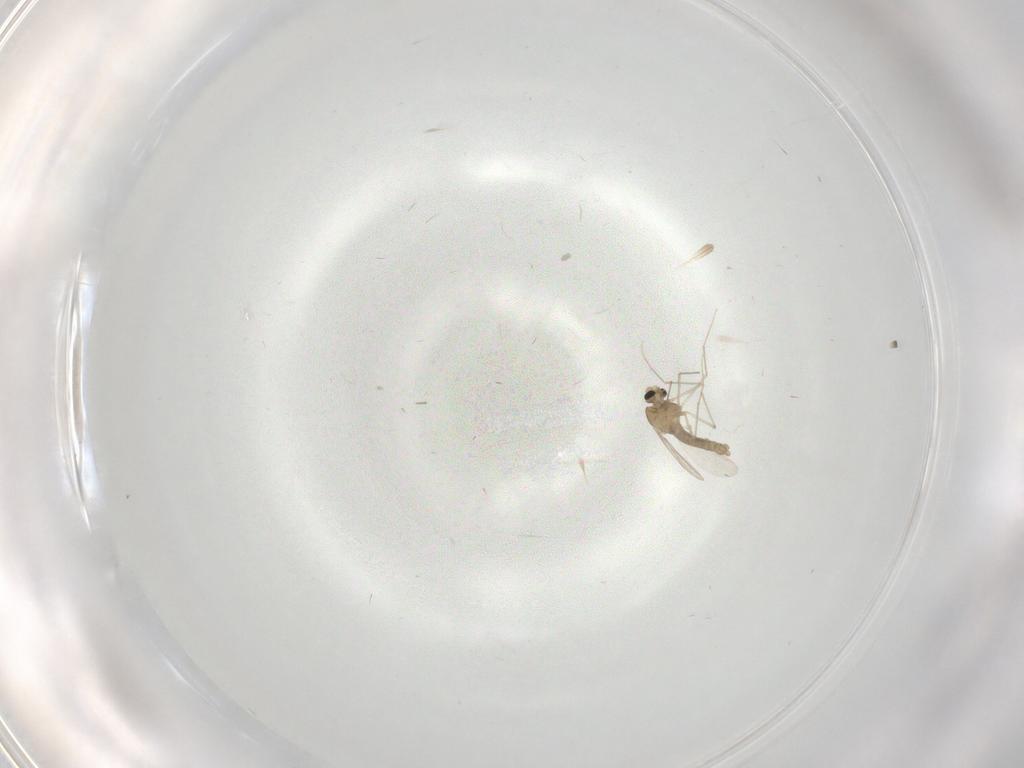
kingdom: Animalia
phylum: Arthropoda
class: Insecta
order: Diptera
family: Chironomidae
